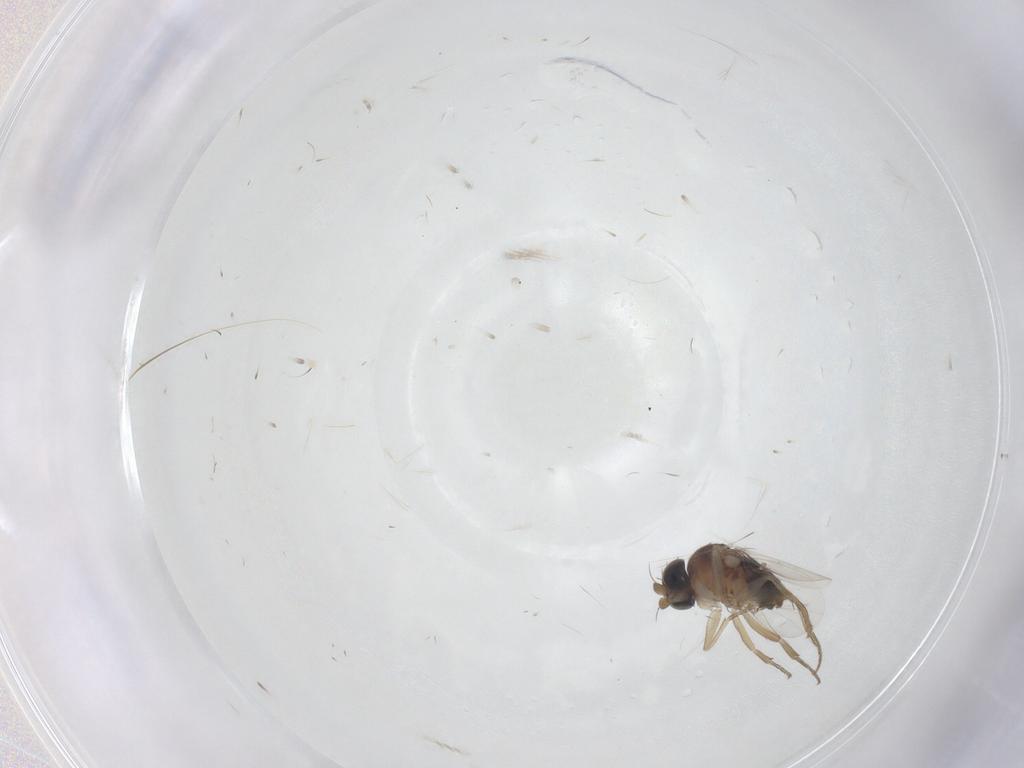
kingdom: Animalia
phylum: Arthropoda
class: Insecta
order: Diptera
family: Phoridae
